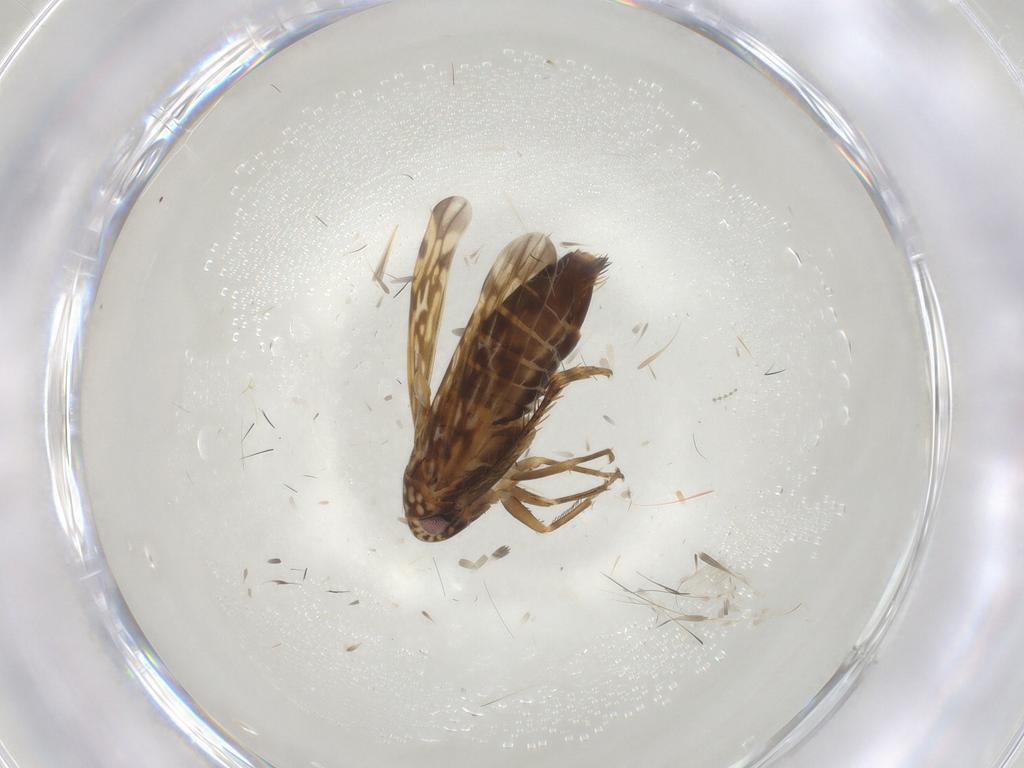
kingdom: Animalia
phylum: Arthropoda
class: Insecta
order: Hemiptera
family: Cicadellidae
